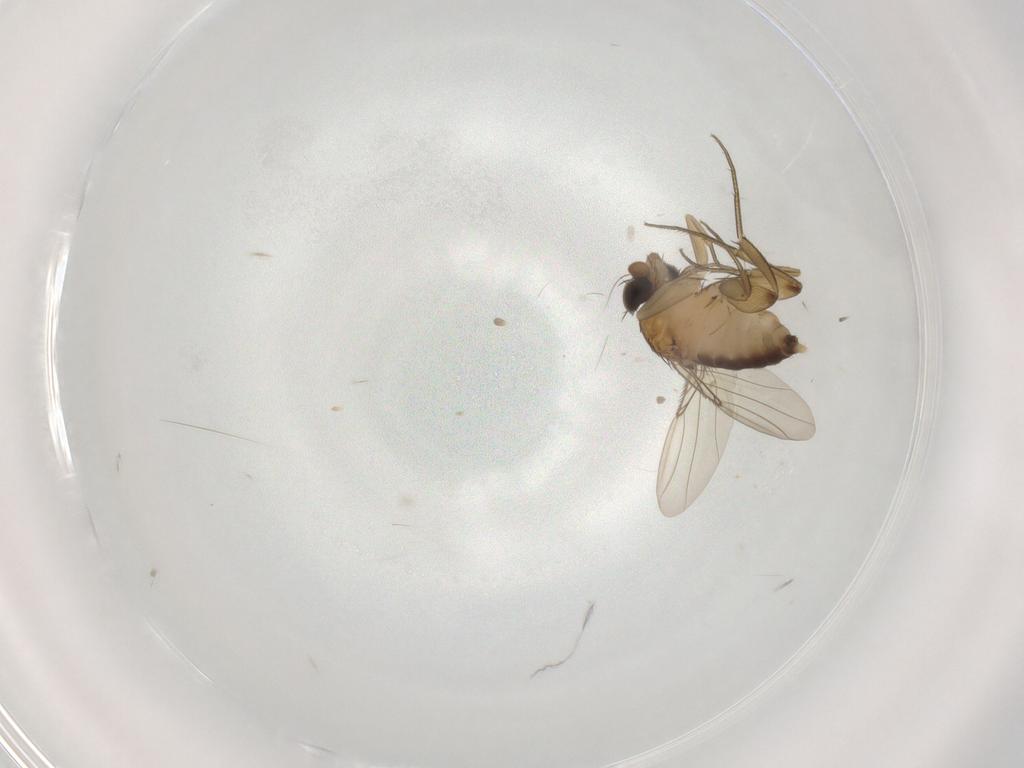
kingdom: Animalia
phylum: Arthropoda
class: Insecta
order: Diptera
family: Phoridae
